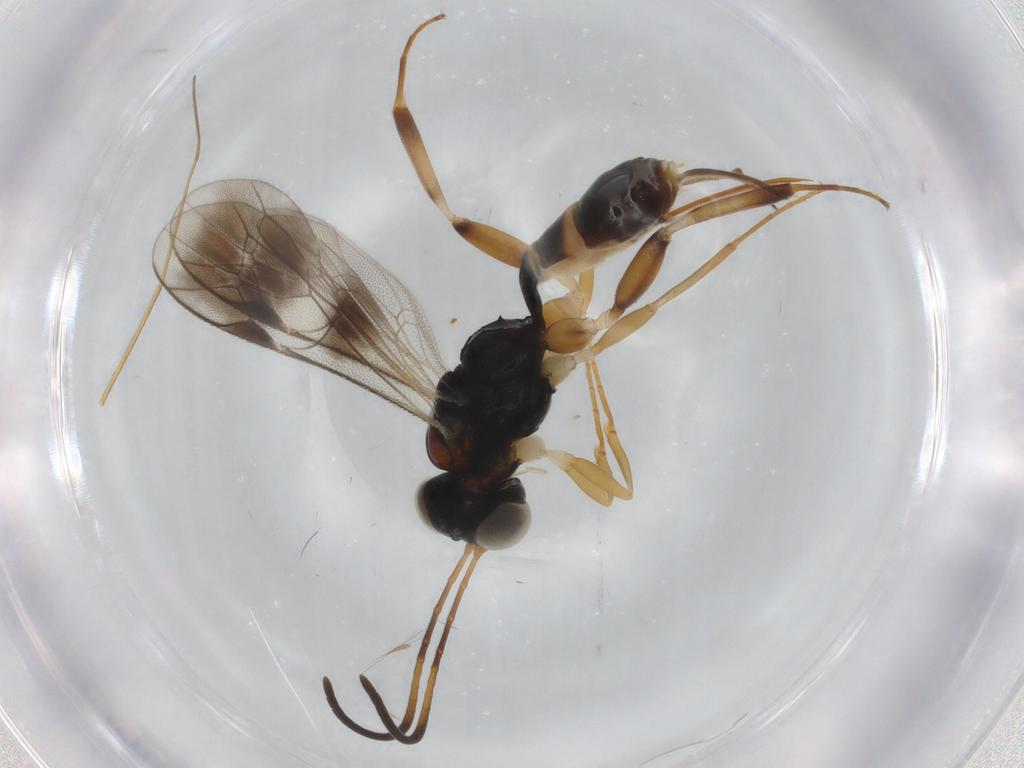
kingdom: Animalia
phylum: Arthropoda
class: Insecta
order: Hymenoptera
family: Ichneumonidae
